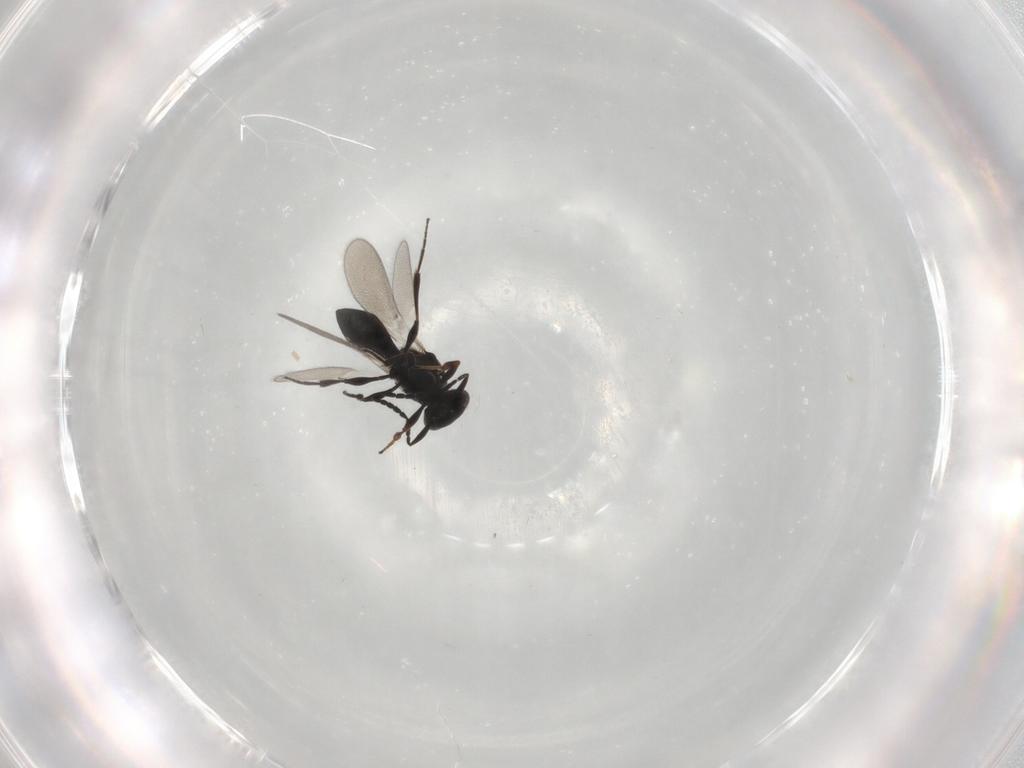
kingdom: Animalia
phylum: Arthropoda
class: Insecta
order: Hymenoptera
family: Platygastridae
